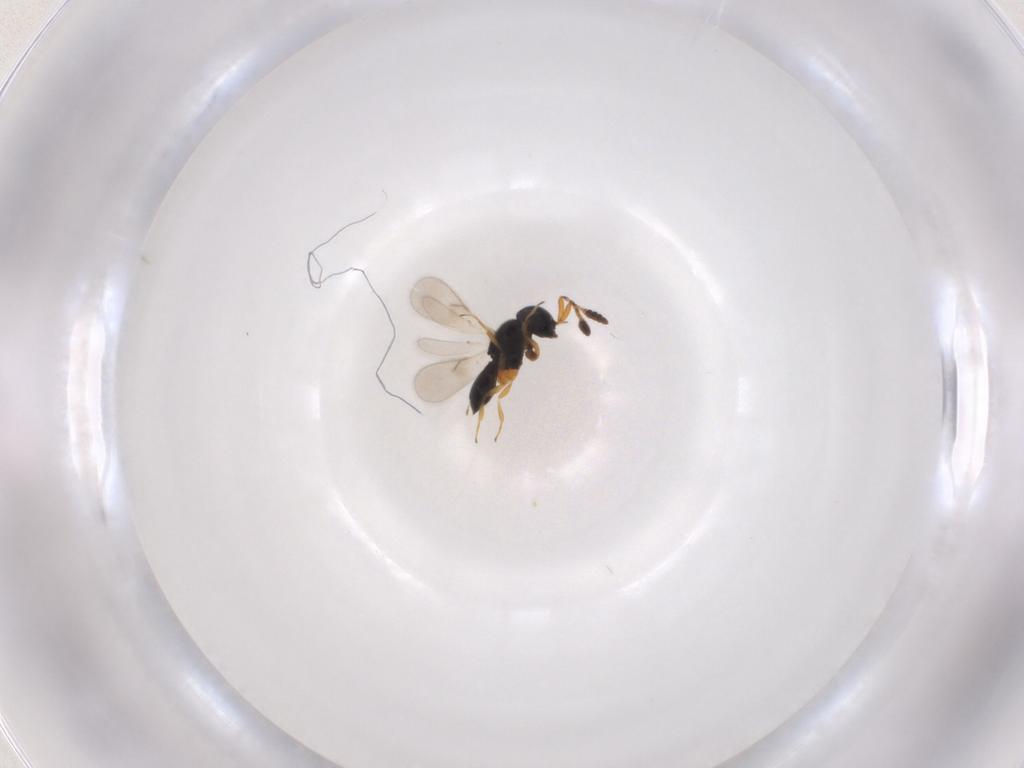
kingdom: Animalia
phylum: Arthropoda
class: Insecta
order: Hymenoptera
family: Scelionidae
